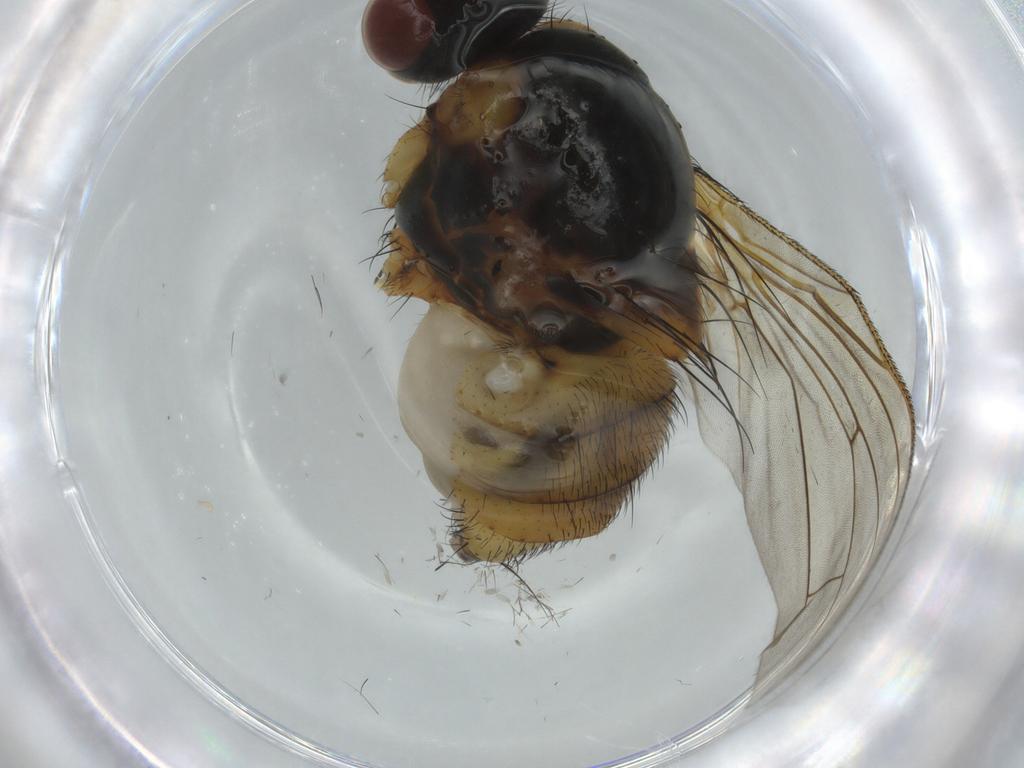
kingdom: Animalia
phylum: Arthropoda
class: Insecta
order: Diptera
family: Anthomyiidae
